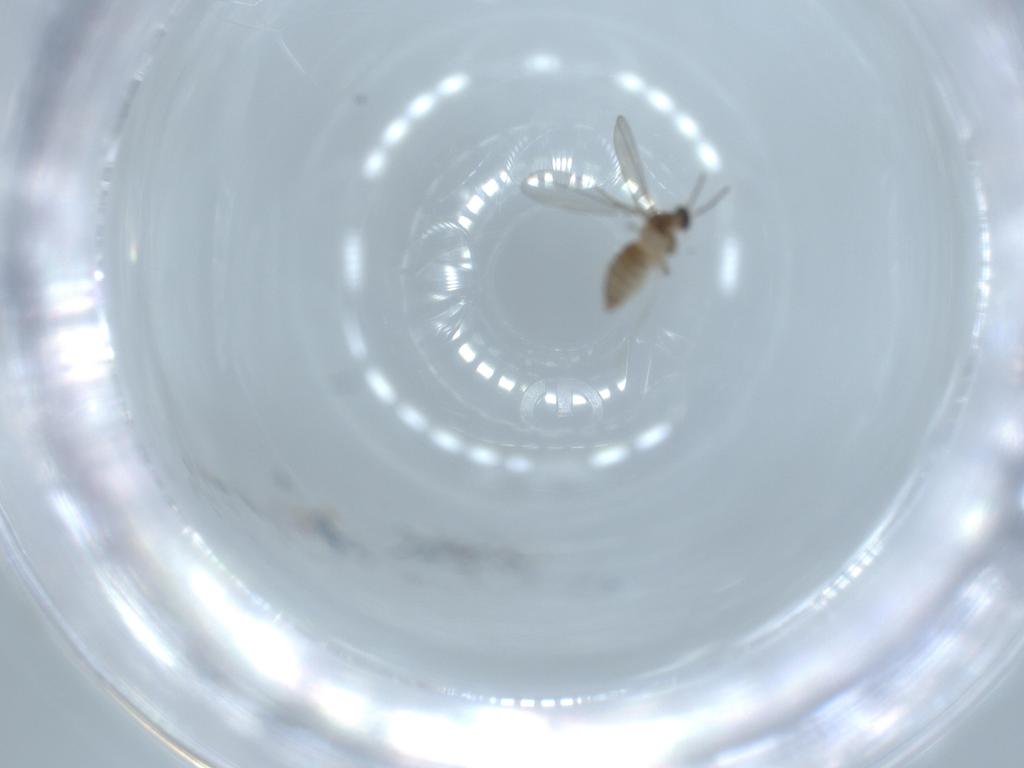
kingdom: Animalia
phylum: Arthropoda
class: Insecta
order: Diptera
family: Cecidomyiidae
